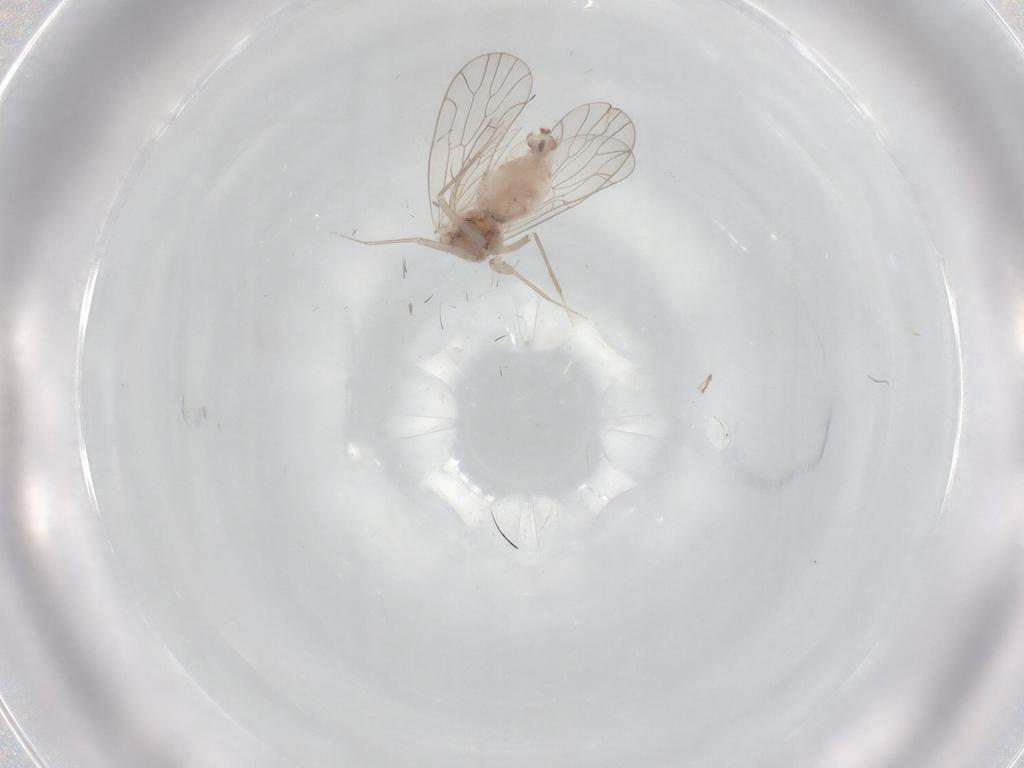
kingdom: Animalia
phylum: Arthropoda
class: Insecta
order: Psocodea
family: Amphientomidae
